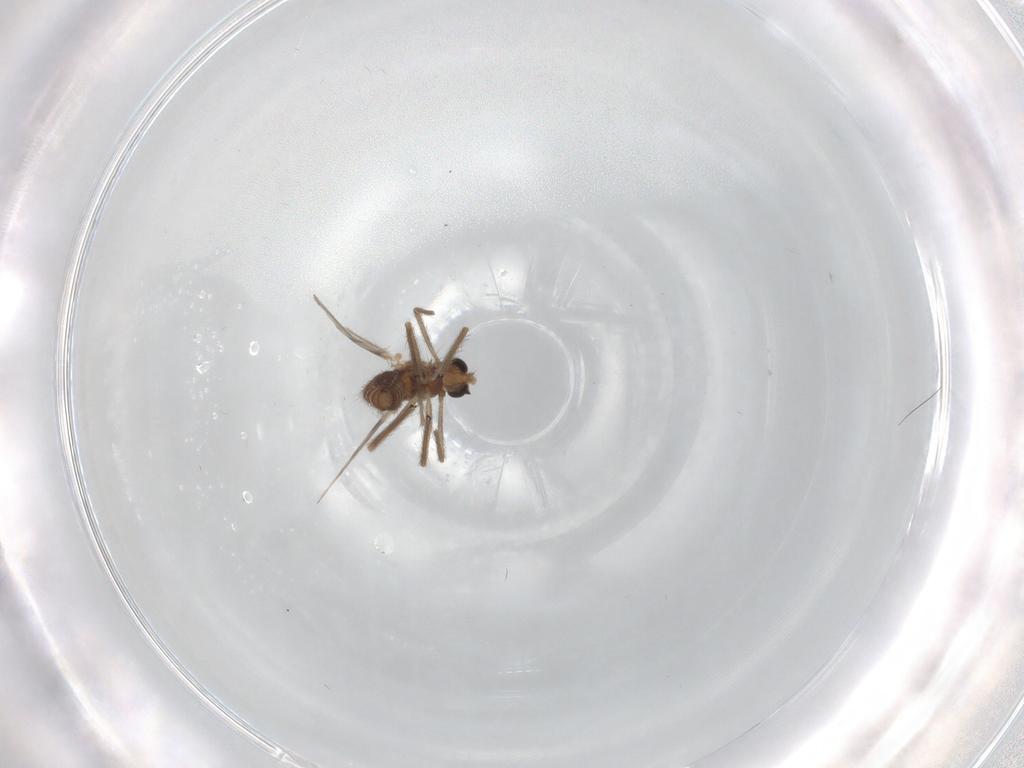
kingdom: Animalia
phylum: Arthropoda
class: Insecta
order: Diptera
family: Chironomidae
